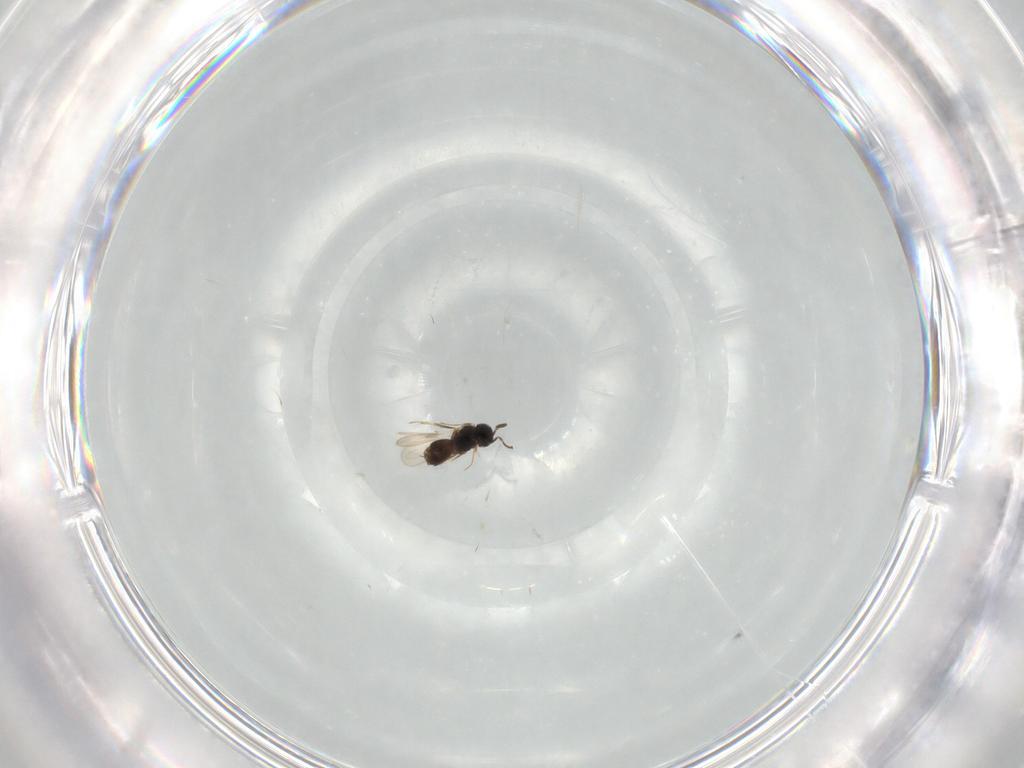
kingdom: Animalia
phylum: Arthropoda
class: Insecta
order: Hymenoptera
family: Scelionidae
